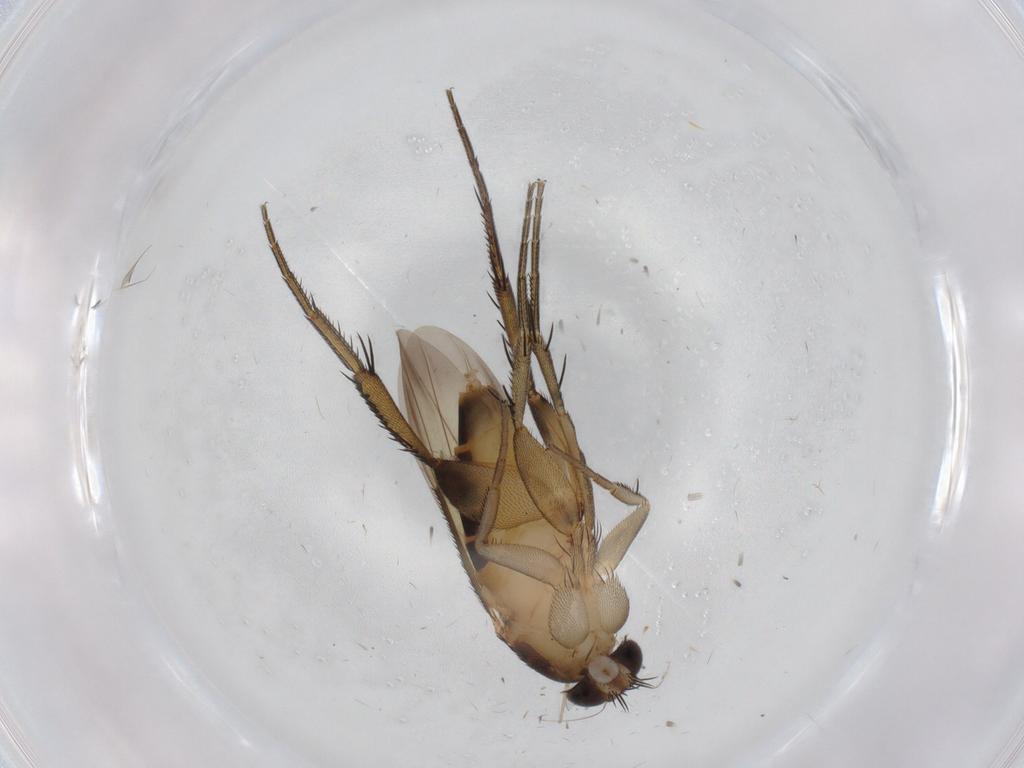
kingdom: Animalia
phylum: Arthropoda
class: Insecta
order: Diptera
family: Phoridae
